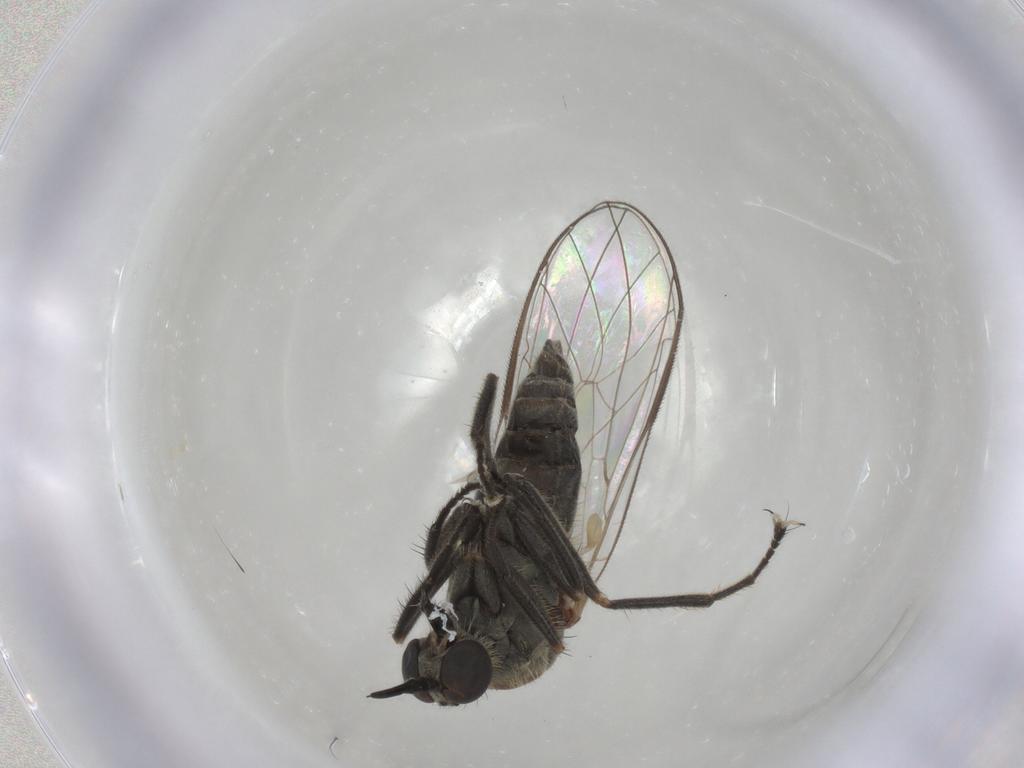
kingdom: Animalia
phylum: Arthropoda
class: Insecta
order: Diptera
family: Empididae
